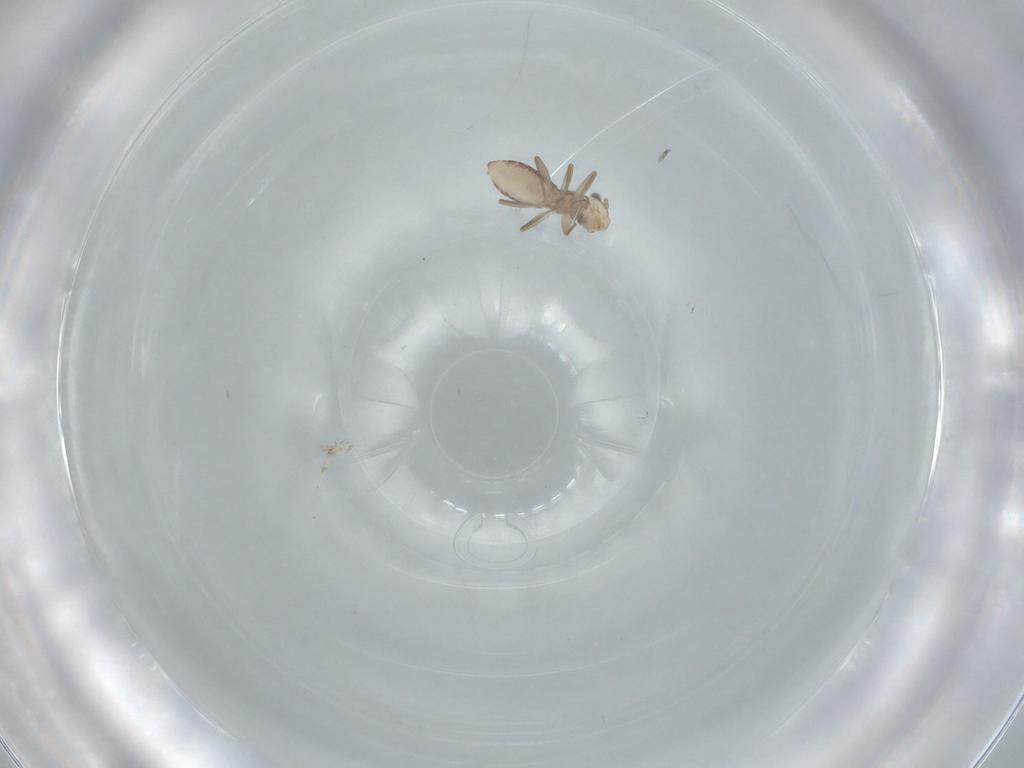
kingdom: Animalia
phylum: Arthropoda
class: Insecta
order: Psocodea
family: Lepidopsocidae
